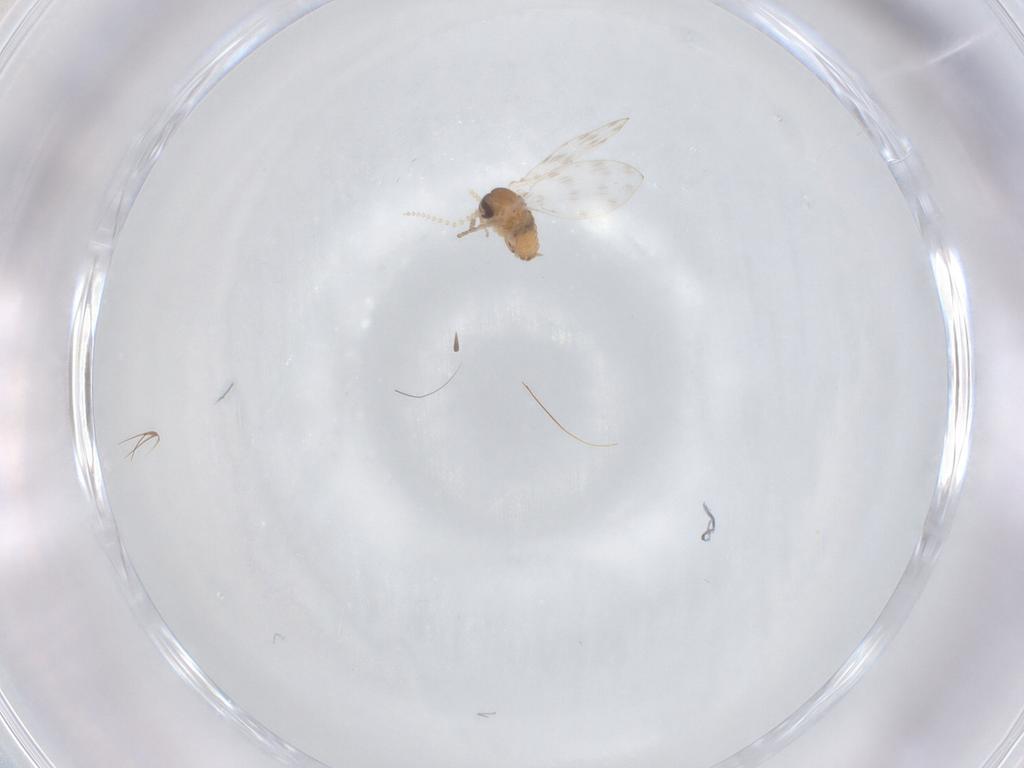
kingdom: Animalia
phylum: Arthropoda
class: Insecta
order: Diptera
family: Psychodidae
